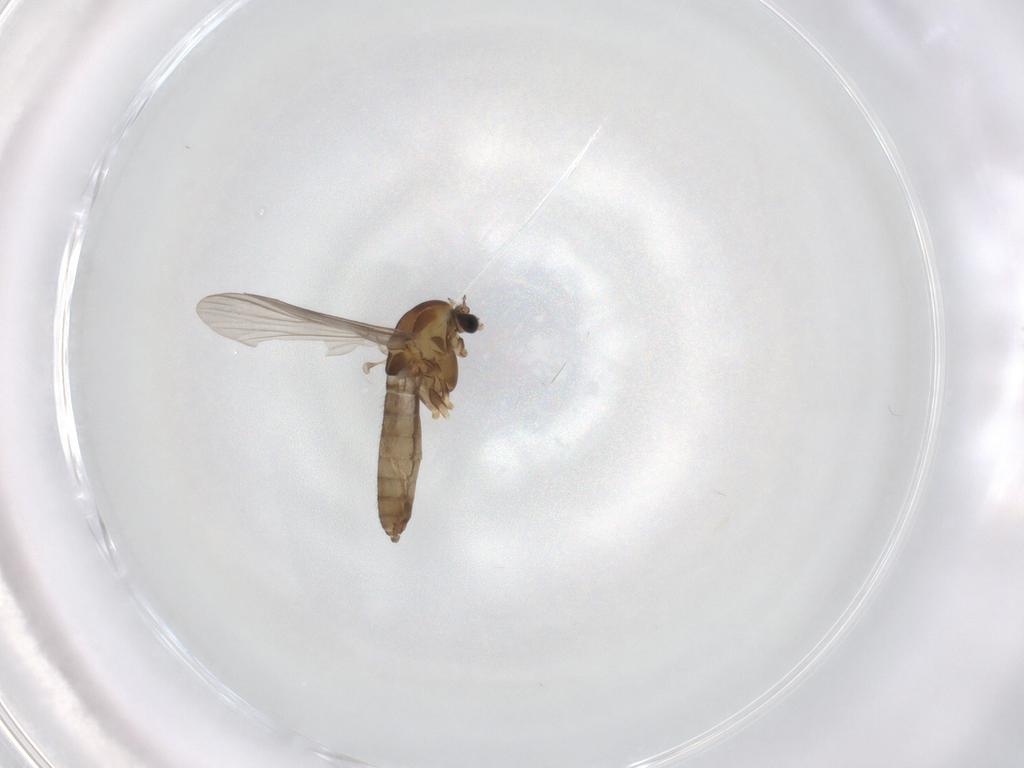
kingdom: Animalia
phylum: Arthropoda
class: Insecta
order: Diptera
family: Chironomidae
